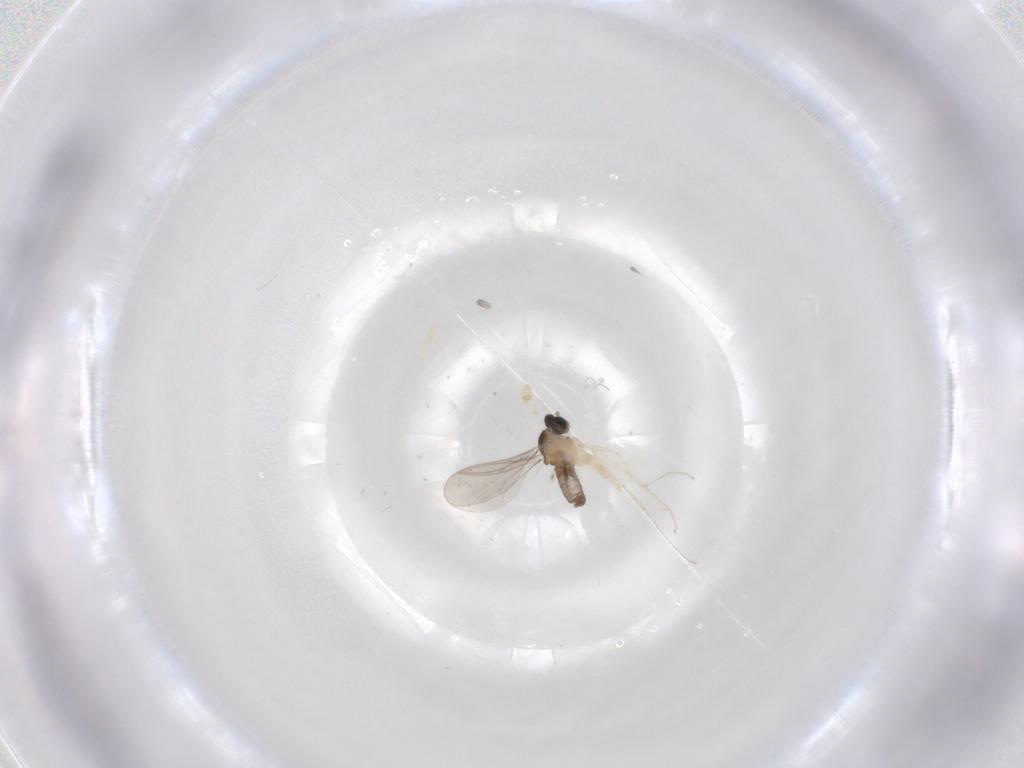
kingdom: Animalia
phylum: Arthropoda
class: Insecta
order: Diptera
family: Cecidomyiidae
